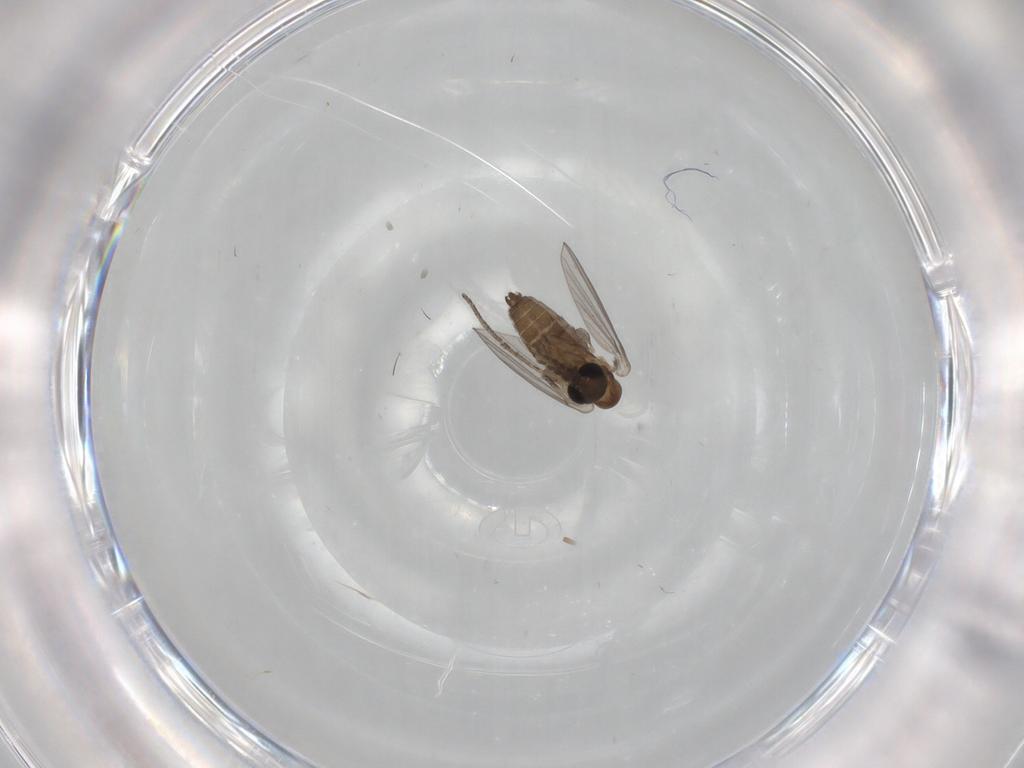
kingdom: Animalia
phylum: Arthropoda
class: Insecta
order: Diptera
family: Psychodidae
